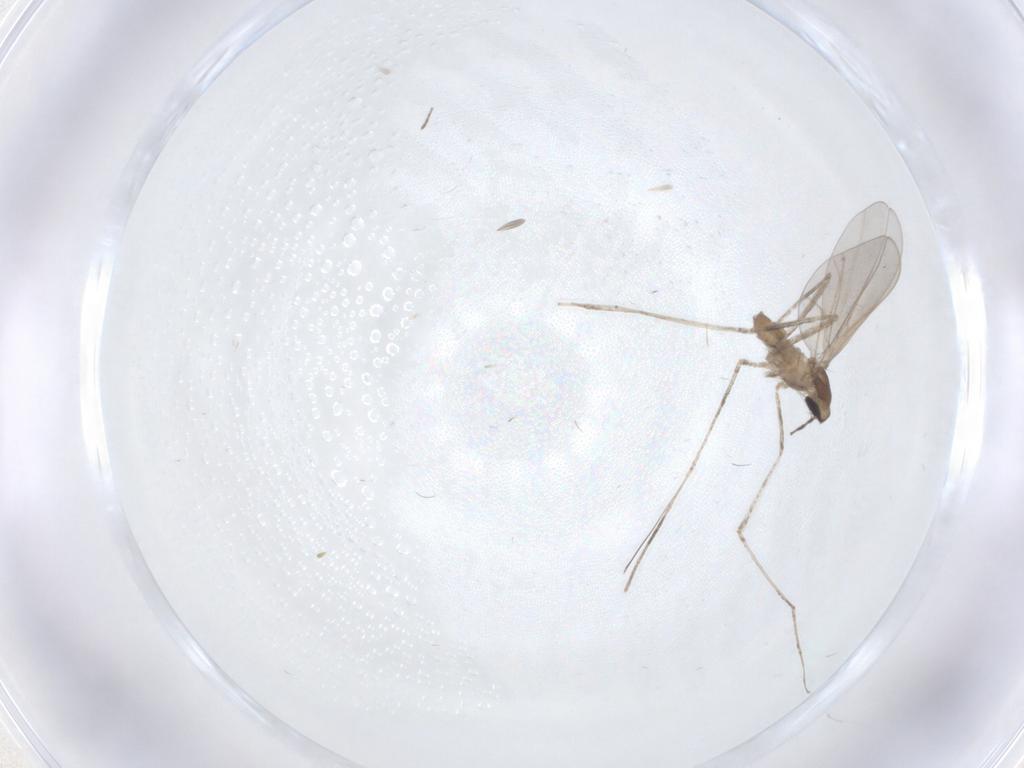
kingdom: Animalia
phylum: Arthropoda
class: Insecta
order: Diptera
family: Cecidomyiidae
